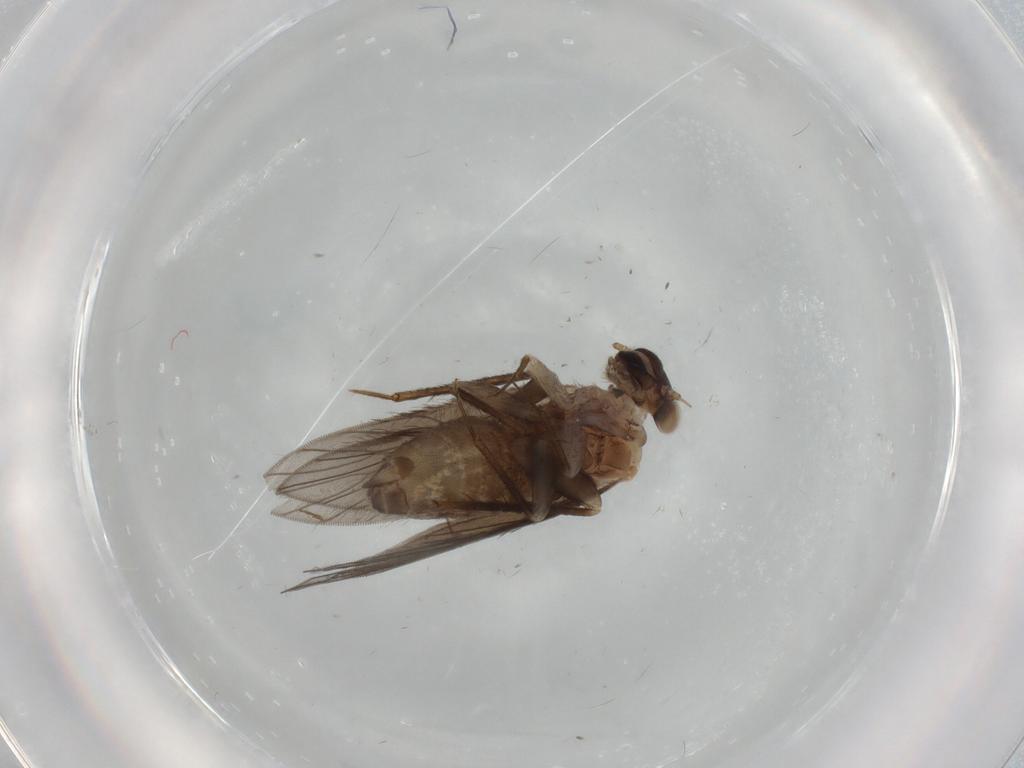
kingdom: Animalia
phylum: Arthropoda
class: Insecta
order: Psocodea
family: Lepidopsocidae
